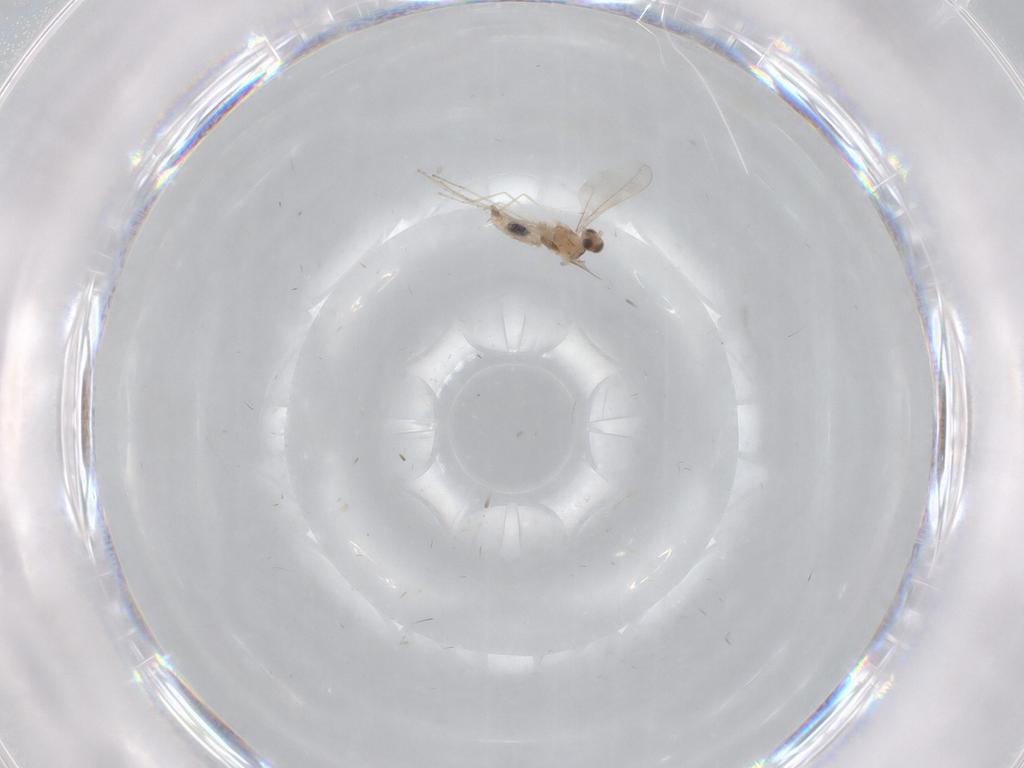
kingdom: Animalia
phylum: Arthropoda
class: Insecta
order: Diptera
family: Cecidomyiidae
